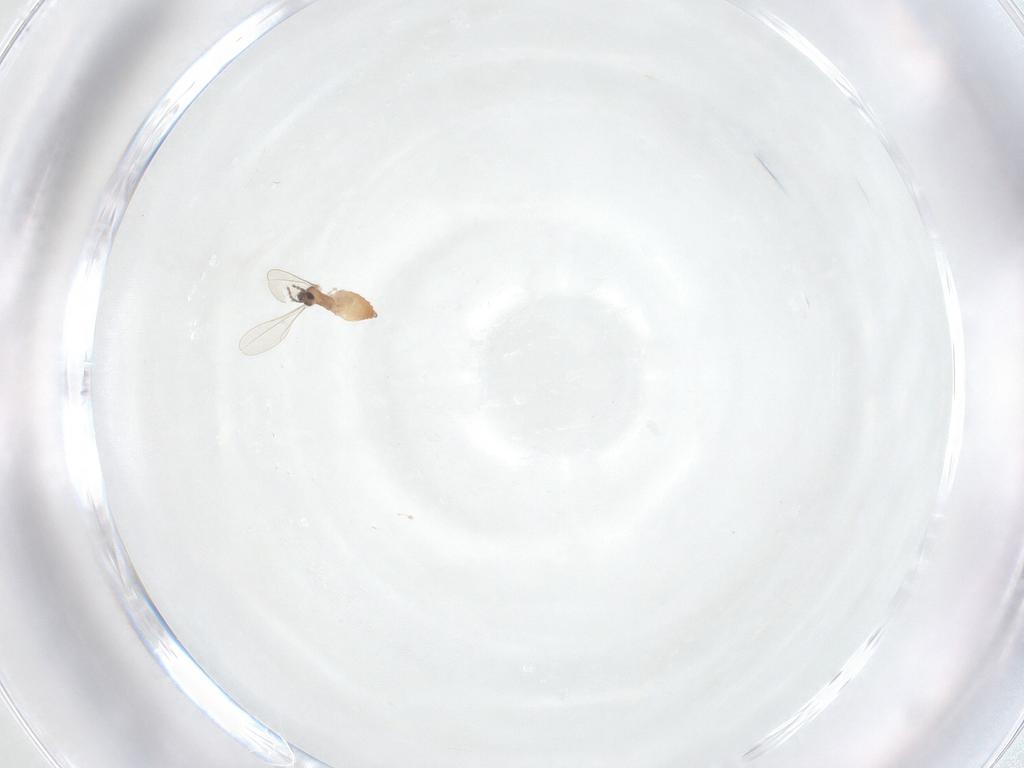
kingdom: Animalia
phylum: Arthropoda
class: Insecta
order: Diptera
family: Cecidomyiidae
